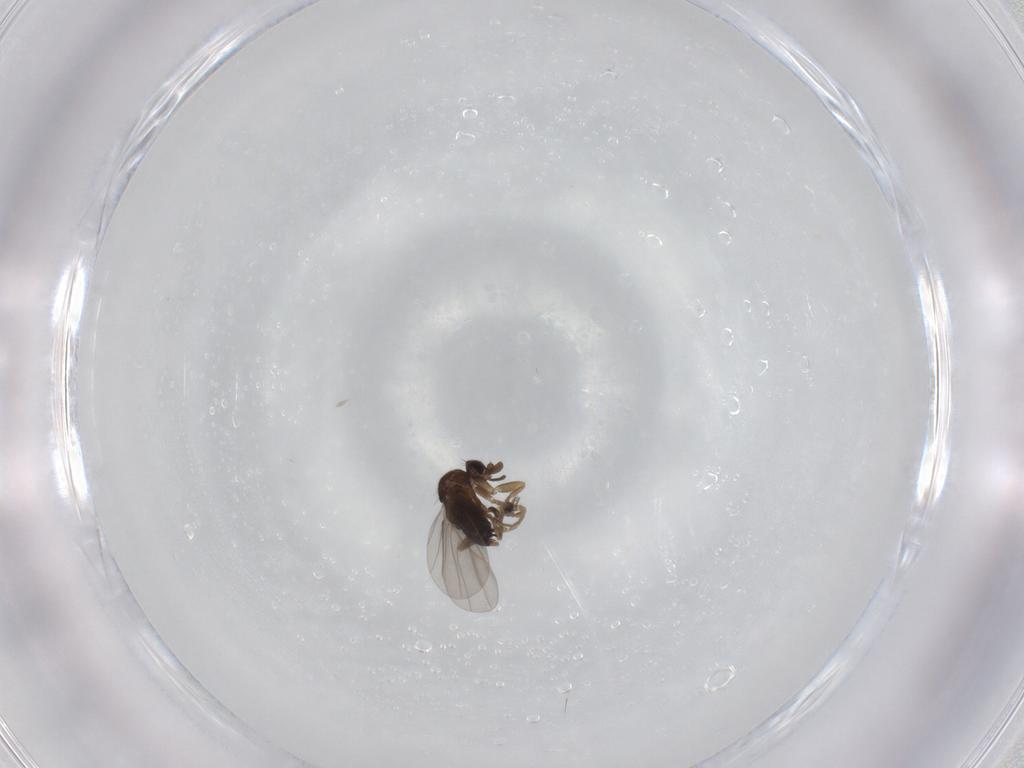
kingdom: Animalia
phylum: Arthropoda
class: Insecta
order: Diptera
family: Phoridae
